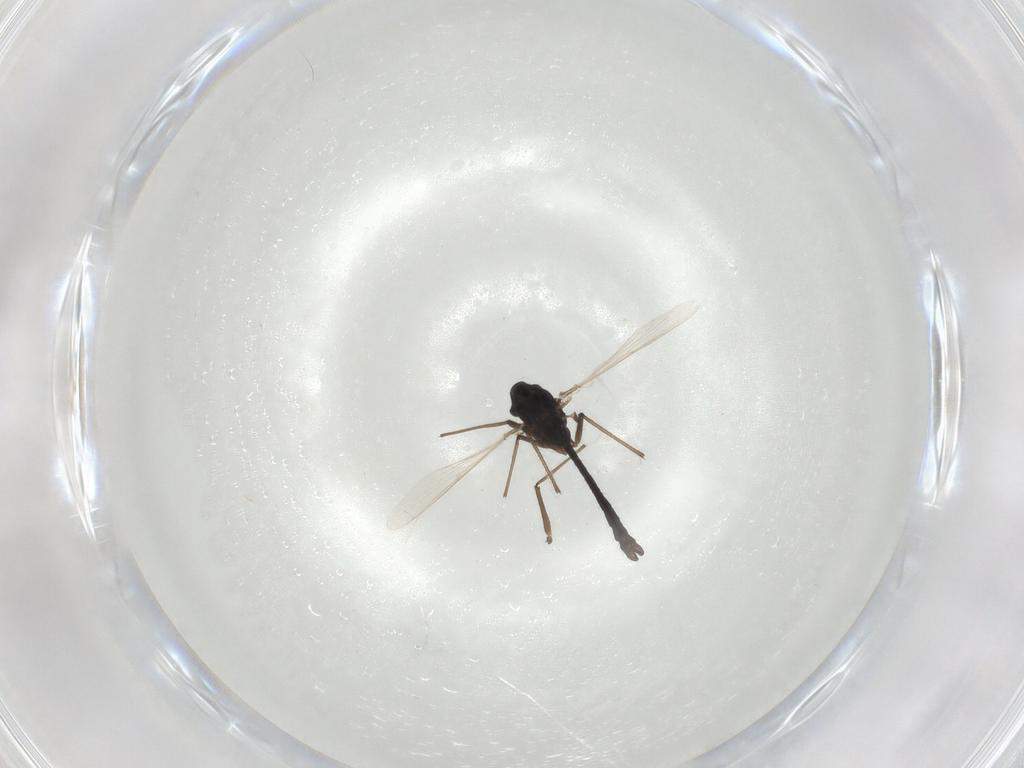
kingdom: Animalia
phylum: Arthropoda
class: Insecta
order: Diptera
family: Chironomidae
